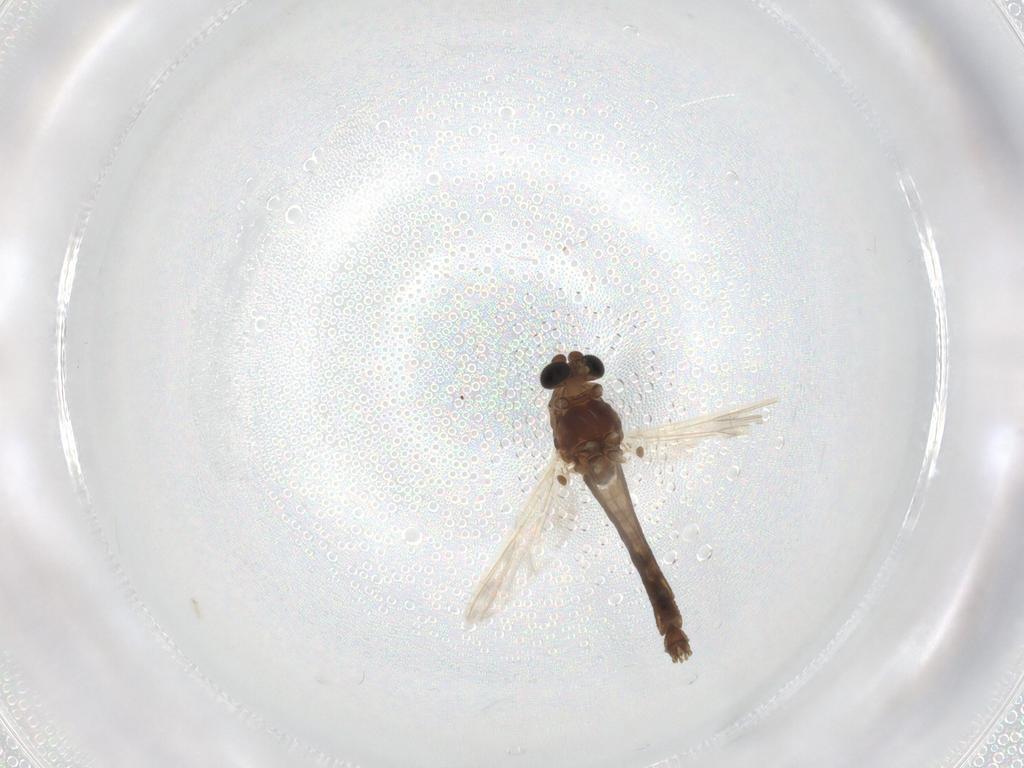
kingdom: Animalia
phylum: Arthropoda
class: Insecta
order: Diptera
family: Chironomidae
